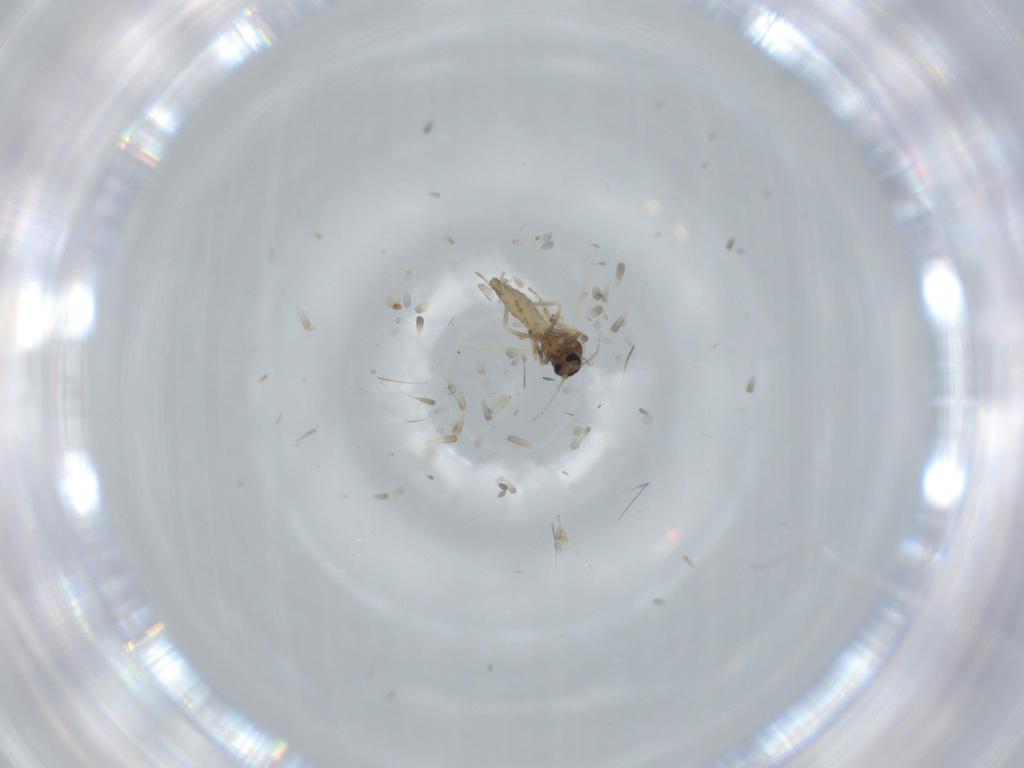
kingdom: Animalia
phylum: Arthropoda
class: Insecta
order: Diptera
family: Ceratopogonidae
